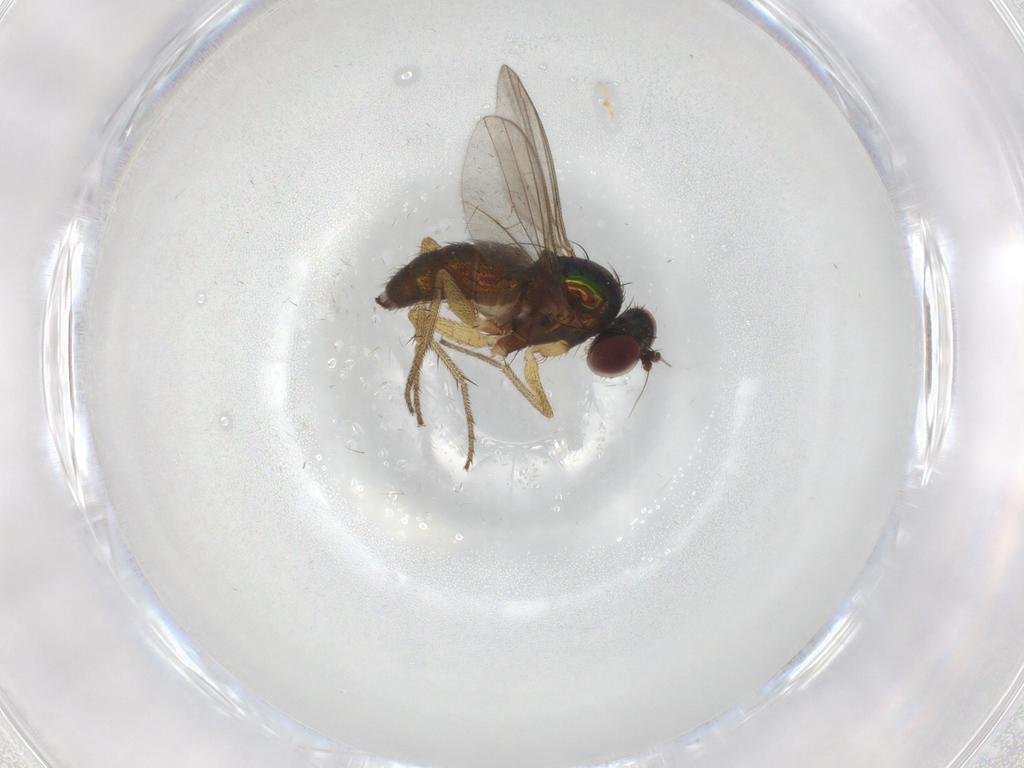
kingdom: Animalia
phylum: Arthropoda
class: Insecta
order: Diptera
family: Dolichopodidae
